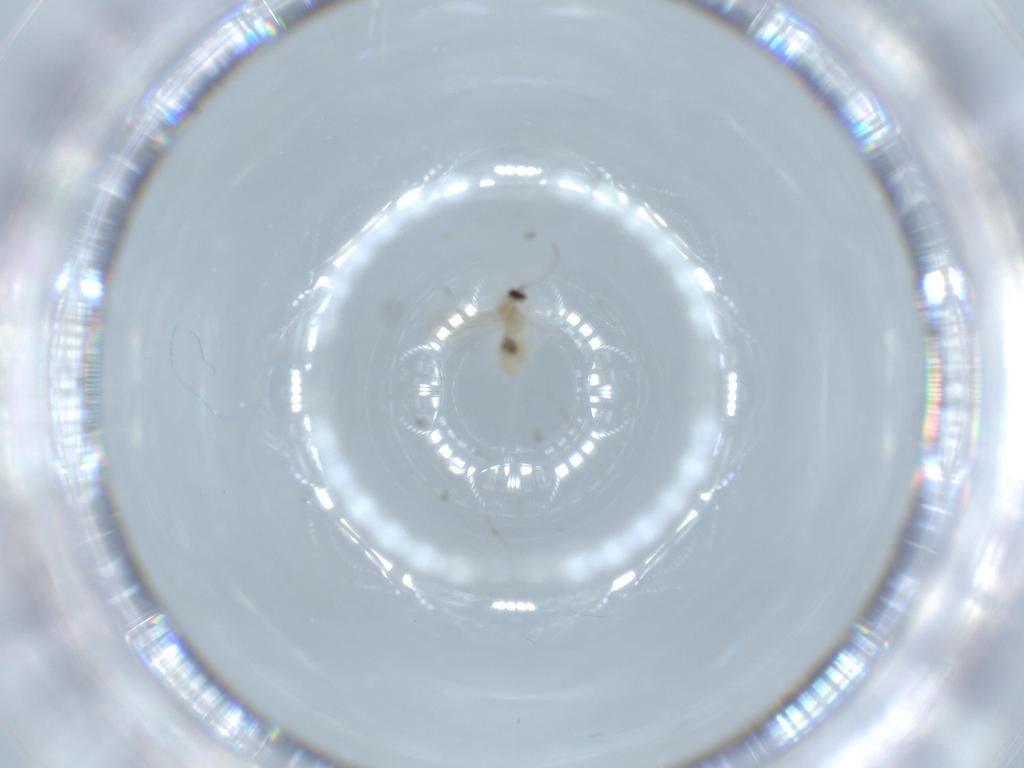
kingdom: Animalia
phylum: Arthropoda
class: Insecta
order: Diptera
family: Cecidomyiidae
